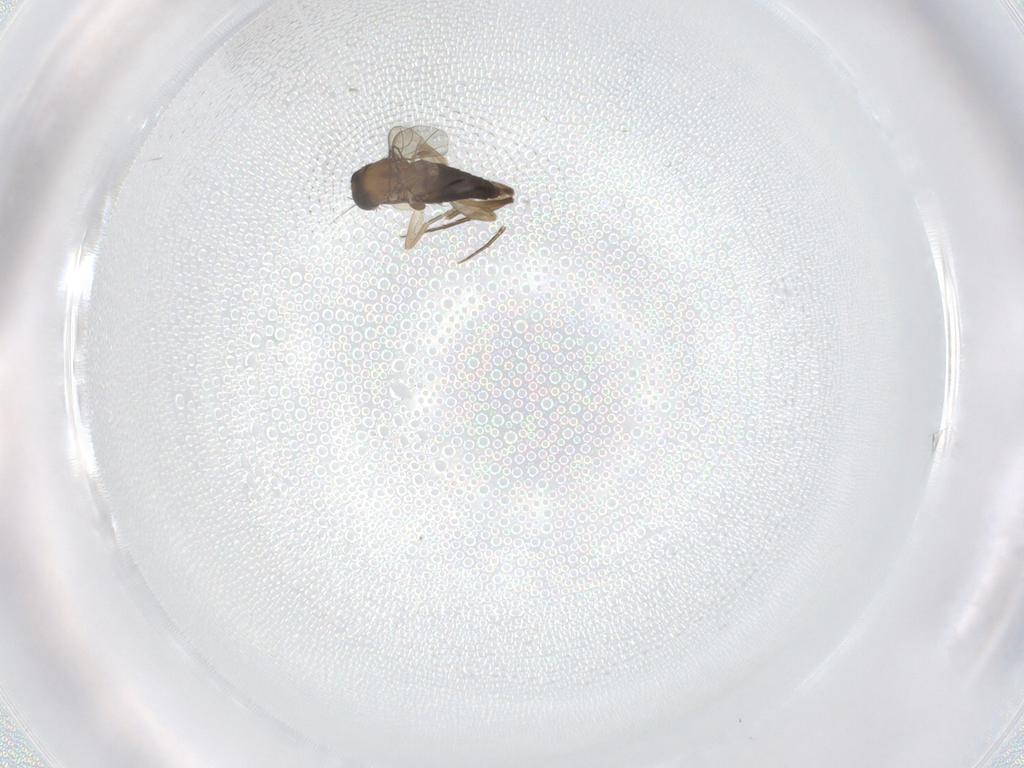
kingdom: Animalia
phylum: Arthropoda
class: Insecta
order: Diptera
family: Phoridae
